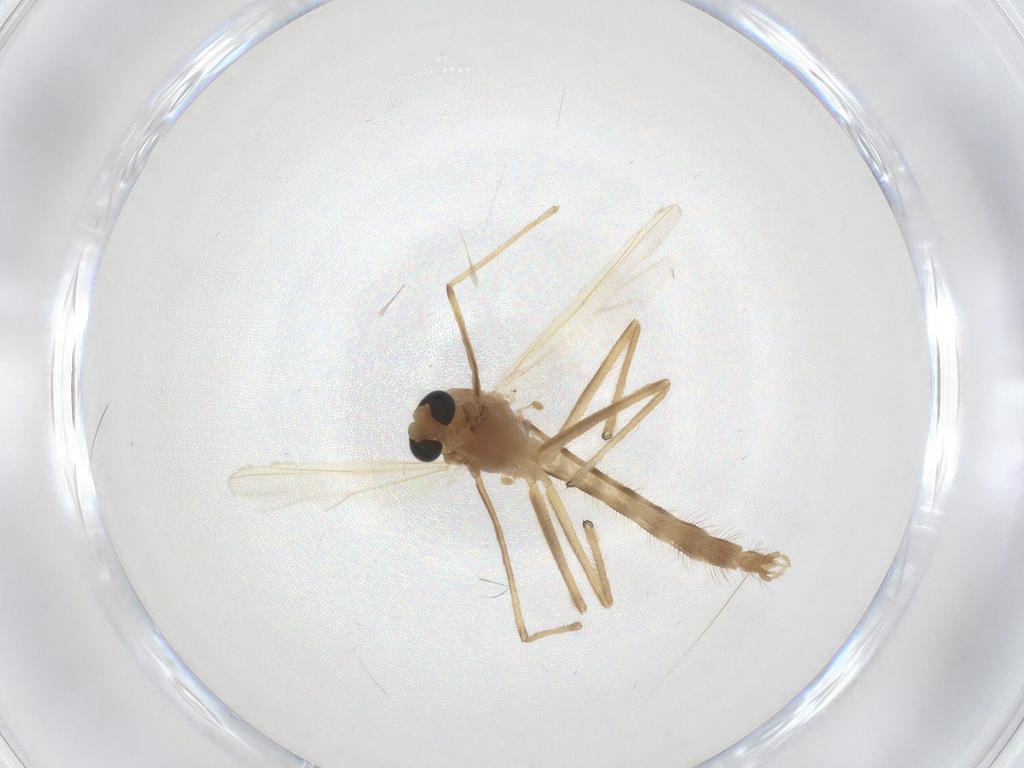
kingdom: Animalia
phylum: Arthropoda
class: Insecta
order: Diptera
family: Chironomidae
